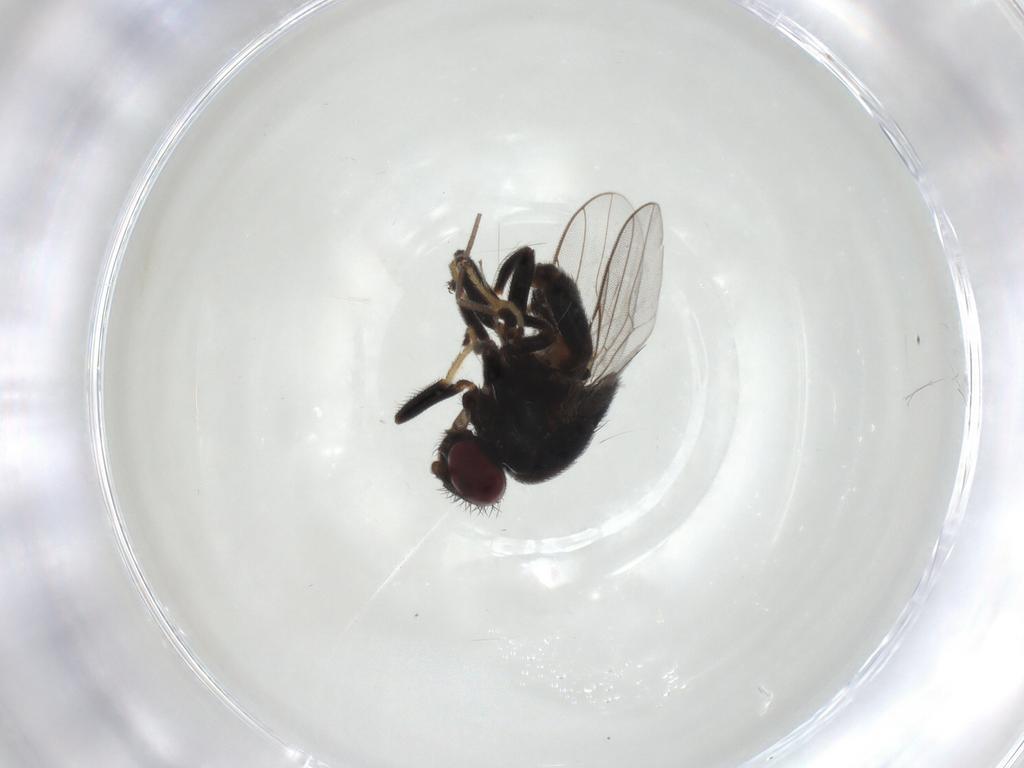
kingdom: Animalia
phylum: Arthropoda
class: Insecta
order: Diptera
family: Chloropidae
